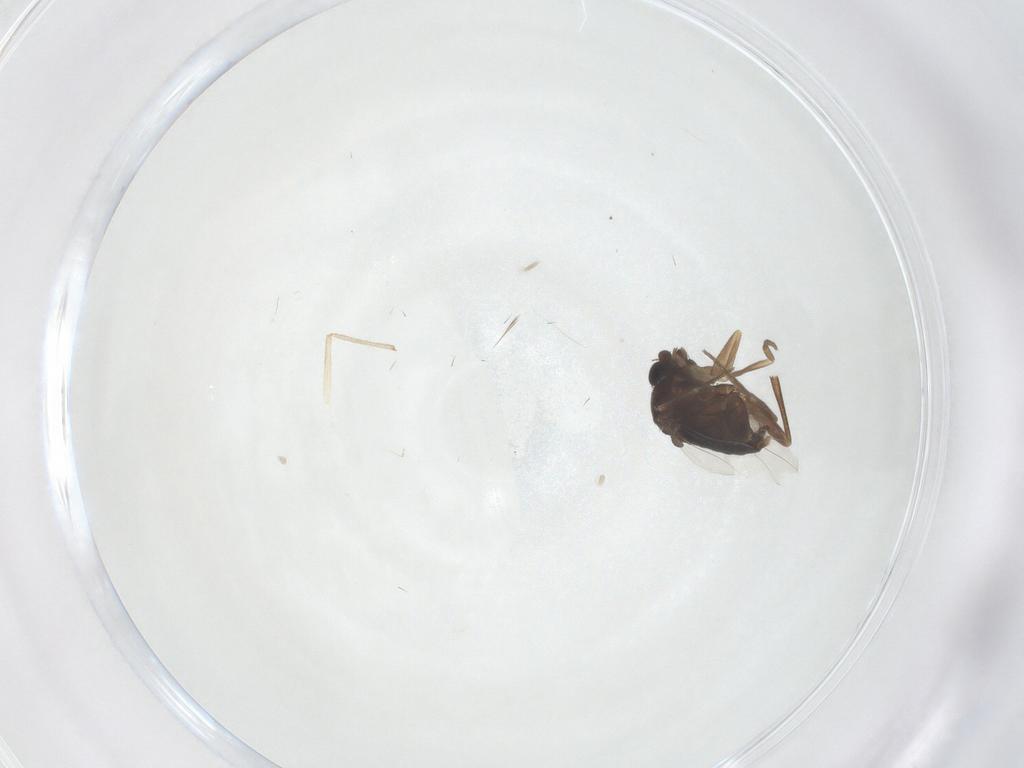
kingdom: Animalia
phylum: Arthropoda
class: Insecta
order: Diptera
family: Phoridae
